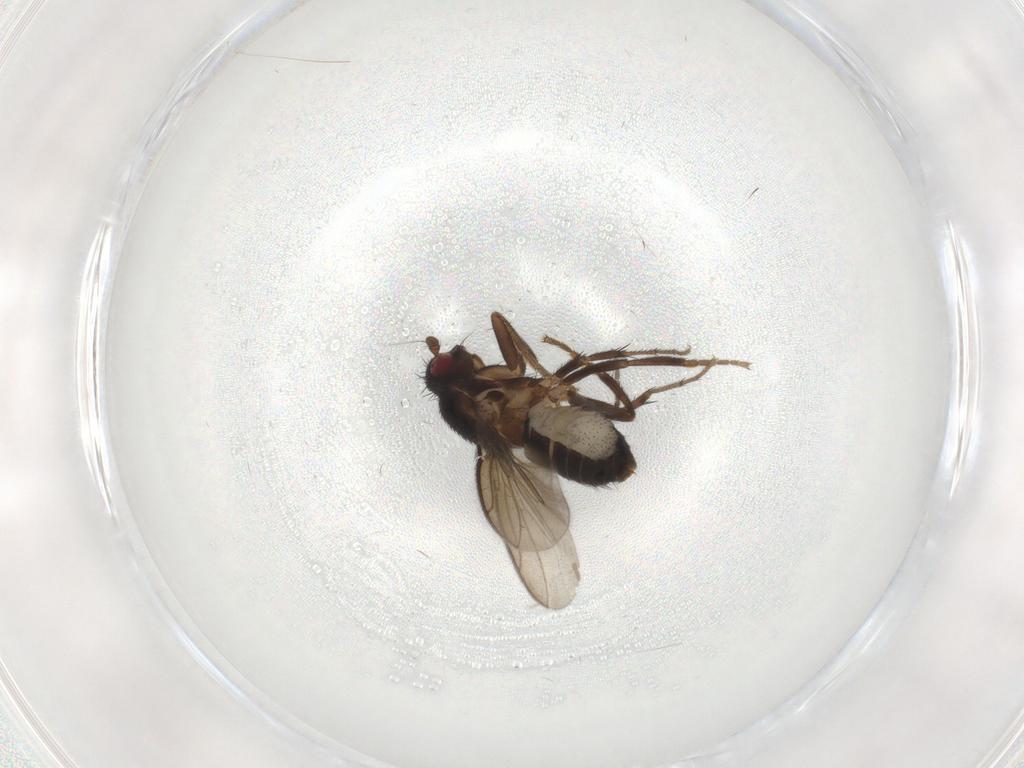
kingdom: Animalia
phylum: Arthropoda
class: Insecta
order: Diptera
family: Sphaeroceridae
